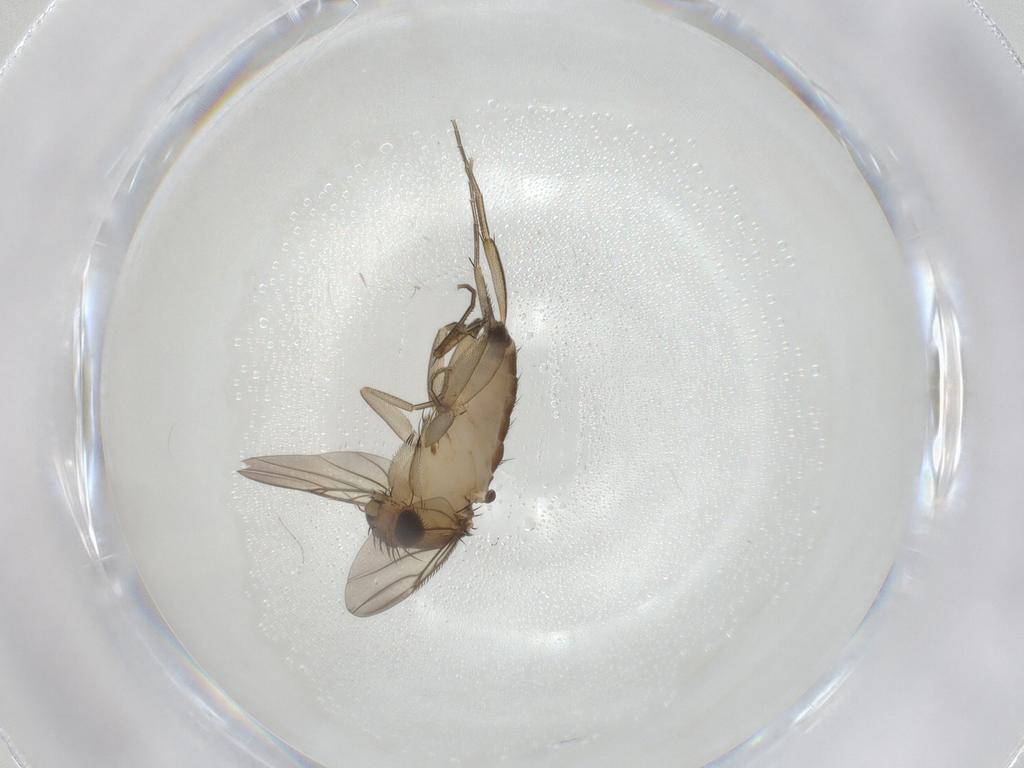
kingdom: Animalia
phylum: Arthropoda
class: Insecta
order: Diptera
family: Phoridae
